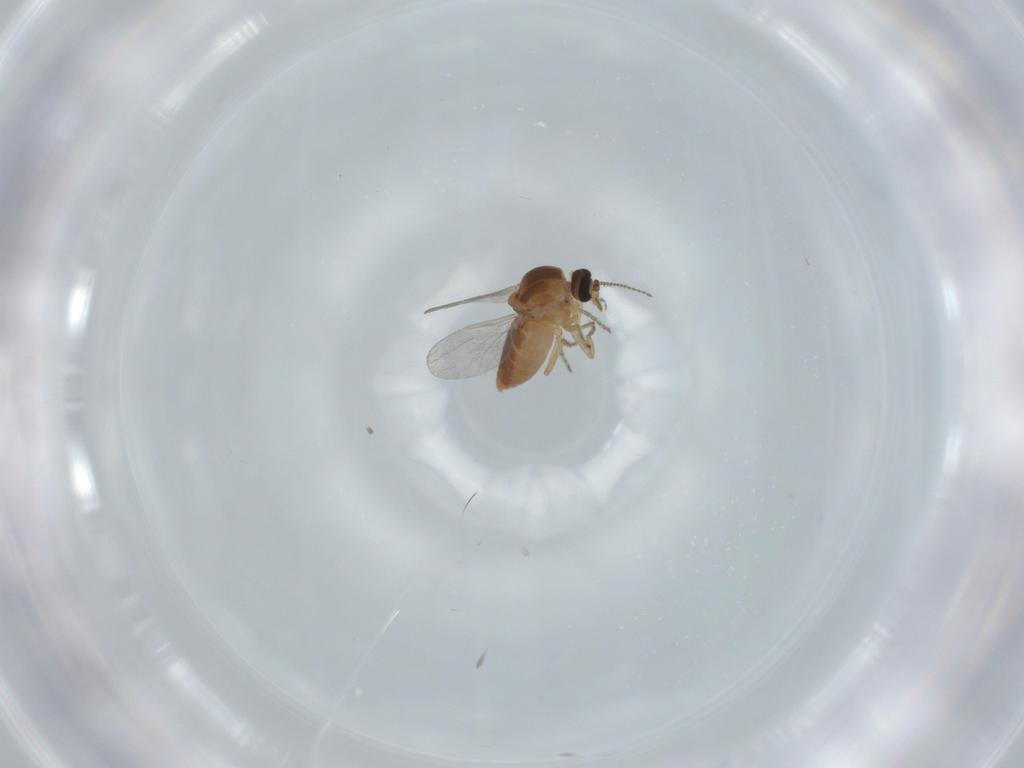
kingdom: Animalia
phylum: Arthropoda
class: Insecta
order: Diptera
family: Ceratopogonidae
